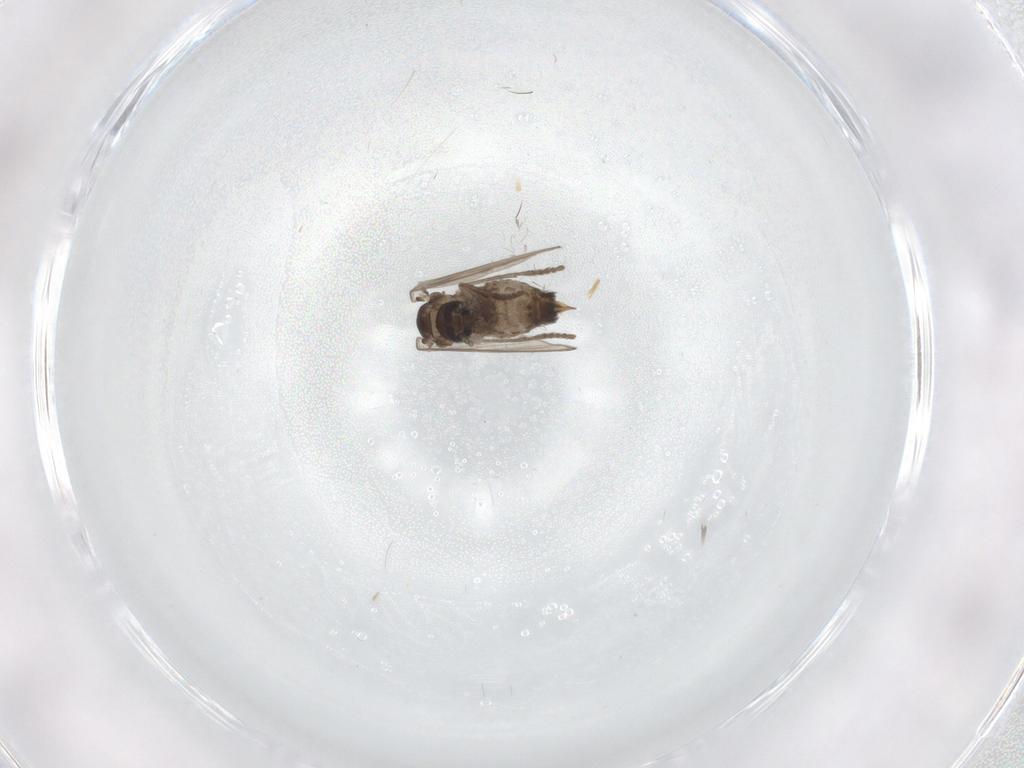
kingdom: Animalia
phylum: Arthropoda
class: Insecta
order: Diptera
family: Psychodidae
